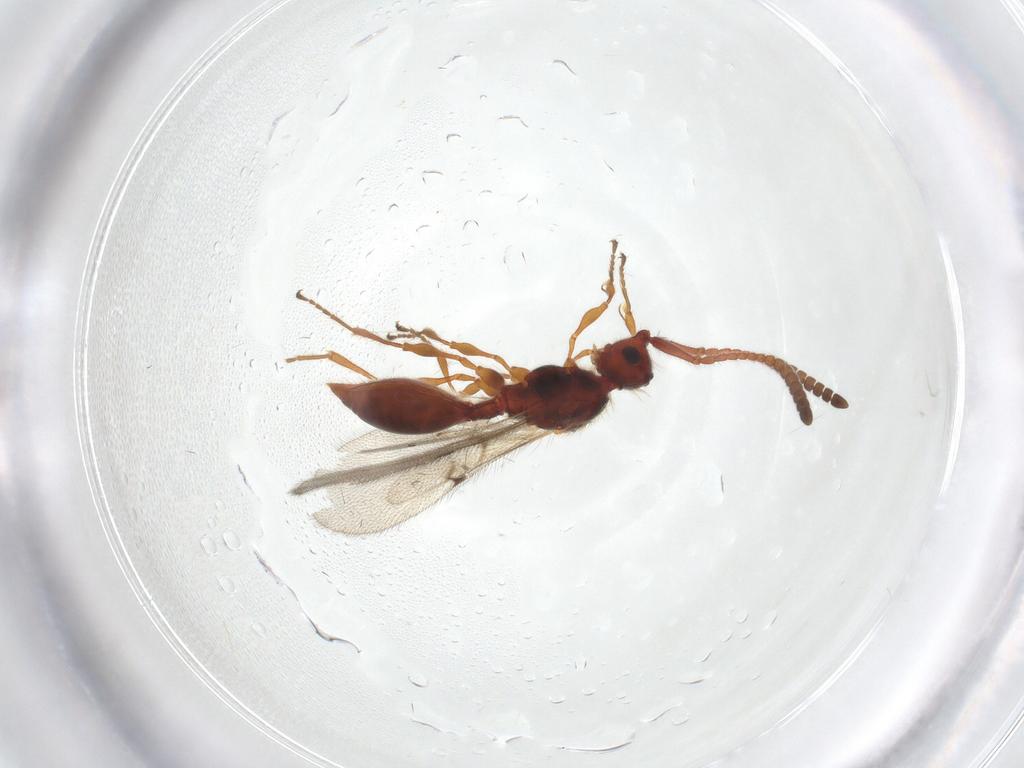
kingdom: Animalia
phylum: Arthropoda
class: Insecta
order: Hymenoptera
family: Diapriidae
